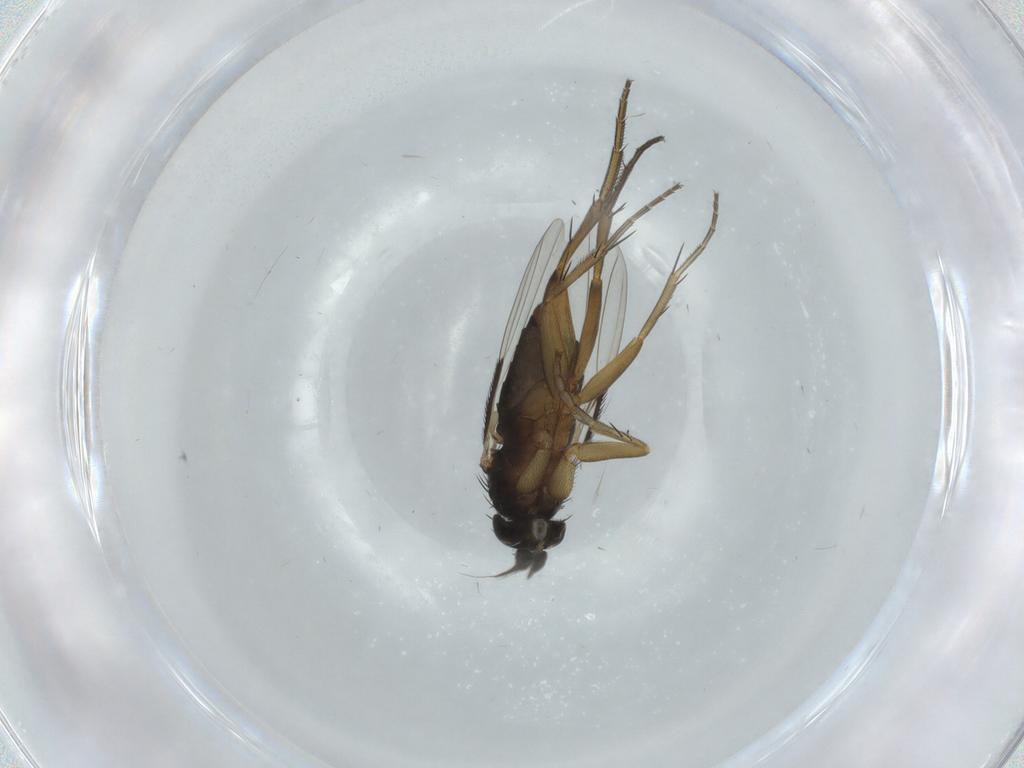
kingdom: Animalia
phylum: Arthropoda
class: Insecta
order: Diptera
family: Phoridae
